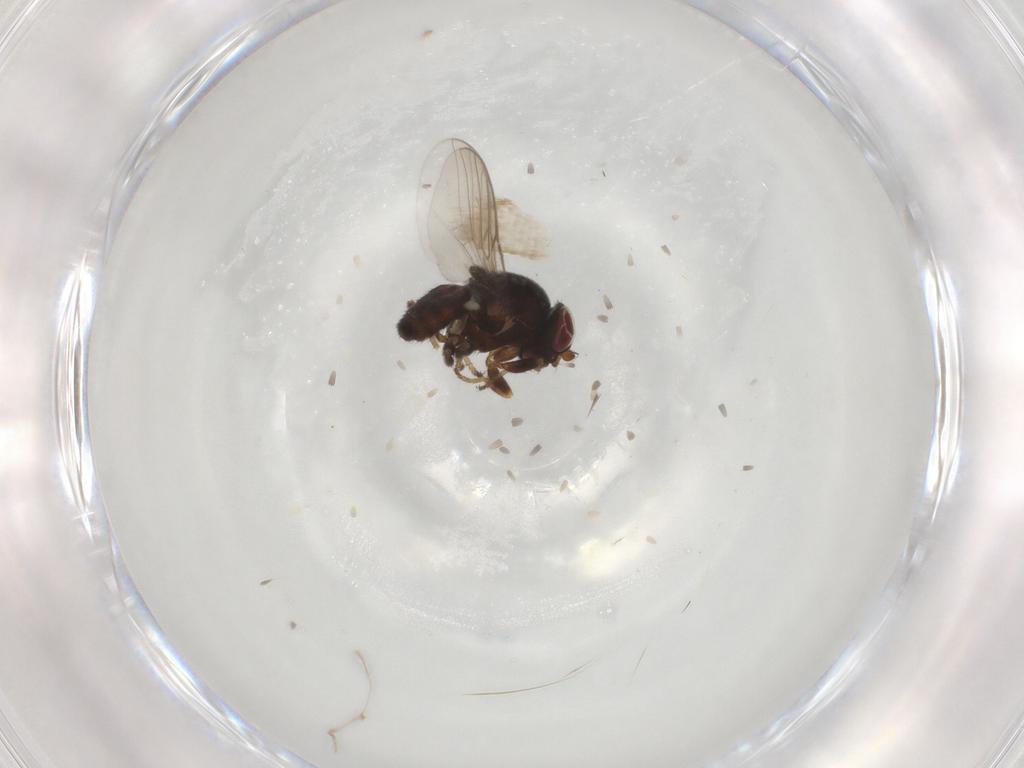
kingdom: Animalia
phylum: Arthropoda
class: Insecta
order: Diptera
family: Chloropidae
